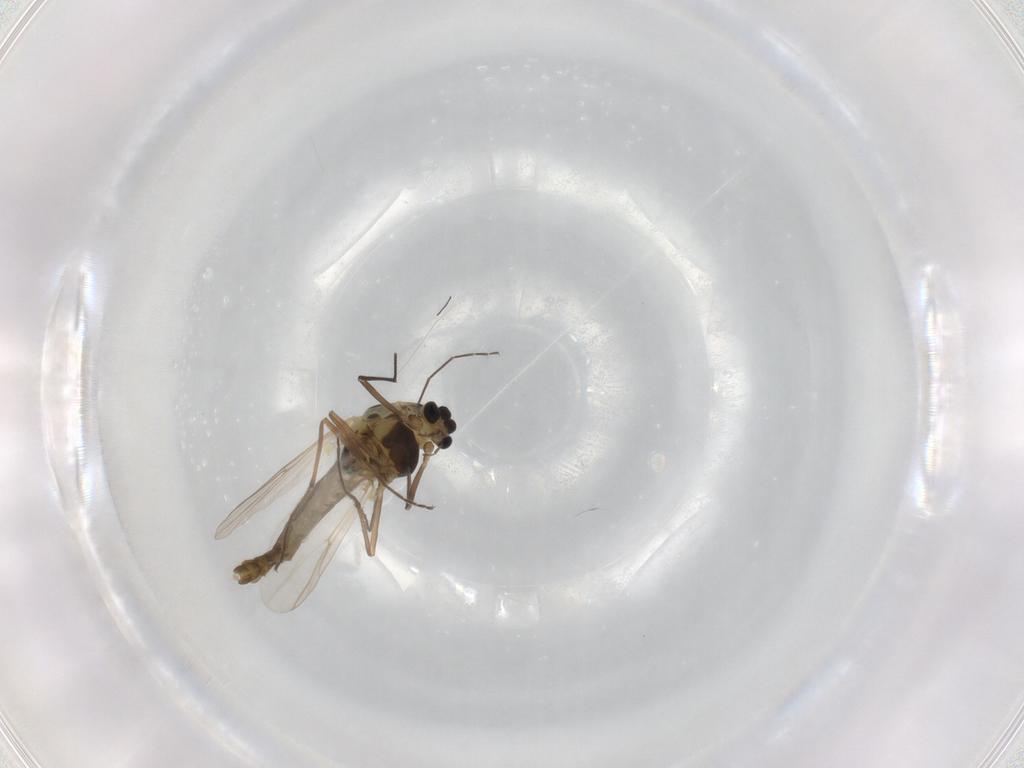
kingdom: Animalia
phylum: Arthropoda
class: Insecta
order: Diptera
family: Chironomidae
